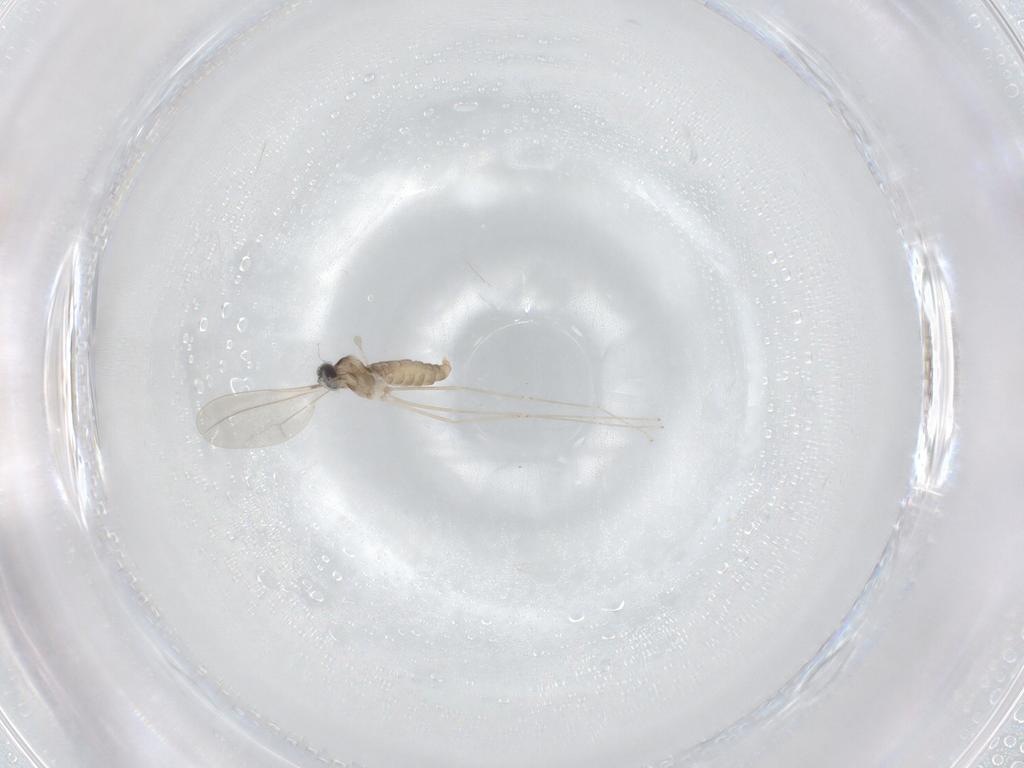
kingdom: Animalia
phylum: Arthropoda
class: Insecta
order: Diptera
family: Cecidomyiidae
